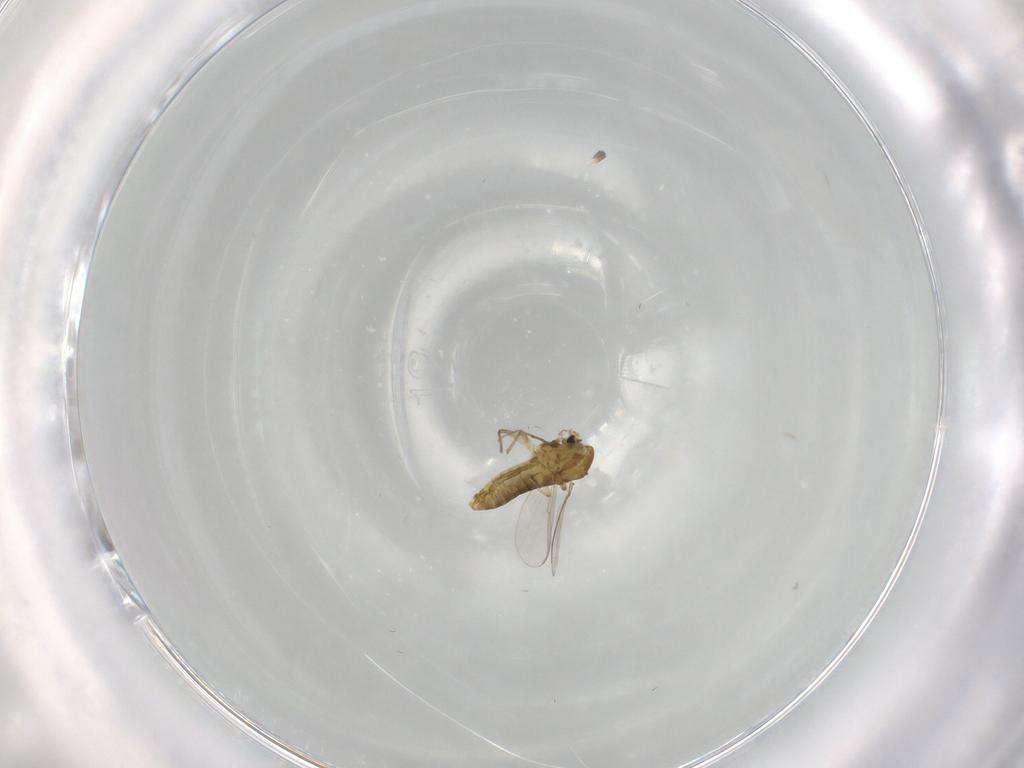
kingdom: Animalia
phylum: Arthropoda
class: Insecta
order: Diptera
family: Chironomidae
